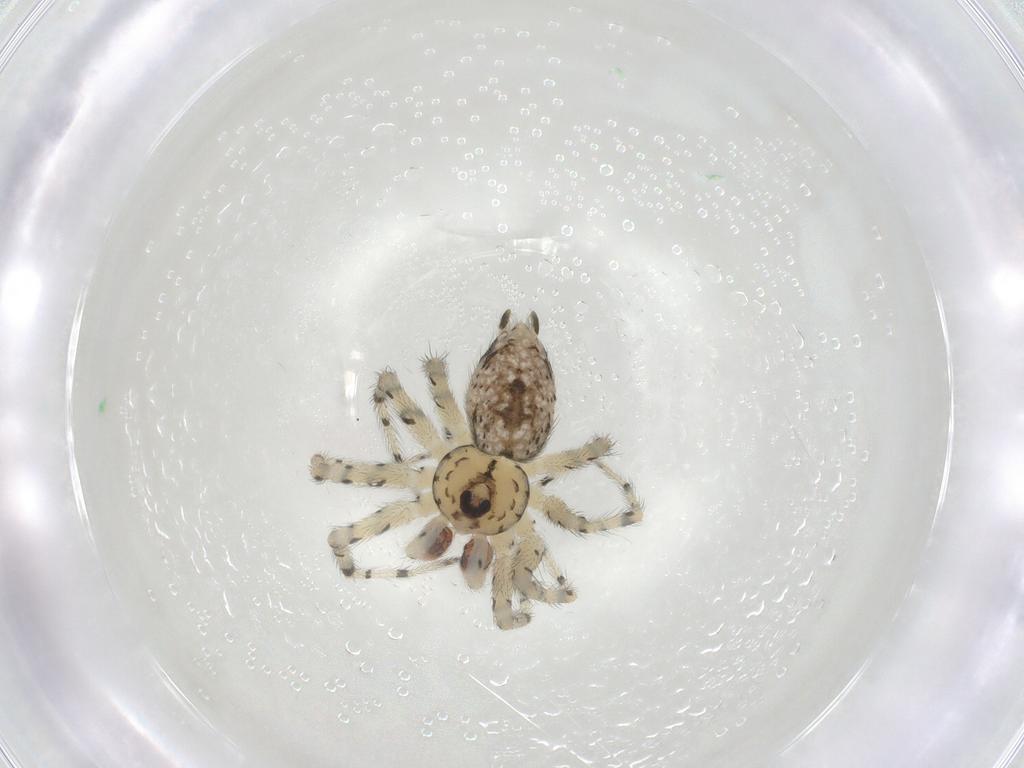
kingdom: Animalia
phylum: Arthropoda
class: Arachnida
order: Araneae
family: Oecobiidae
